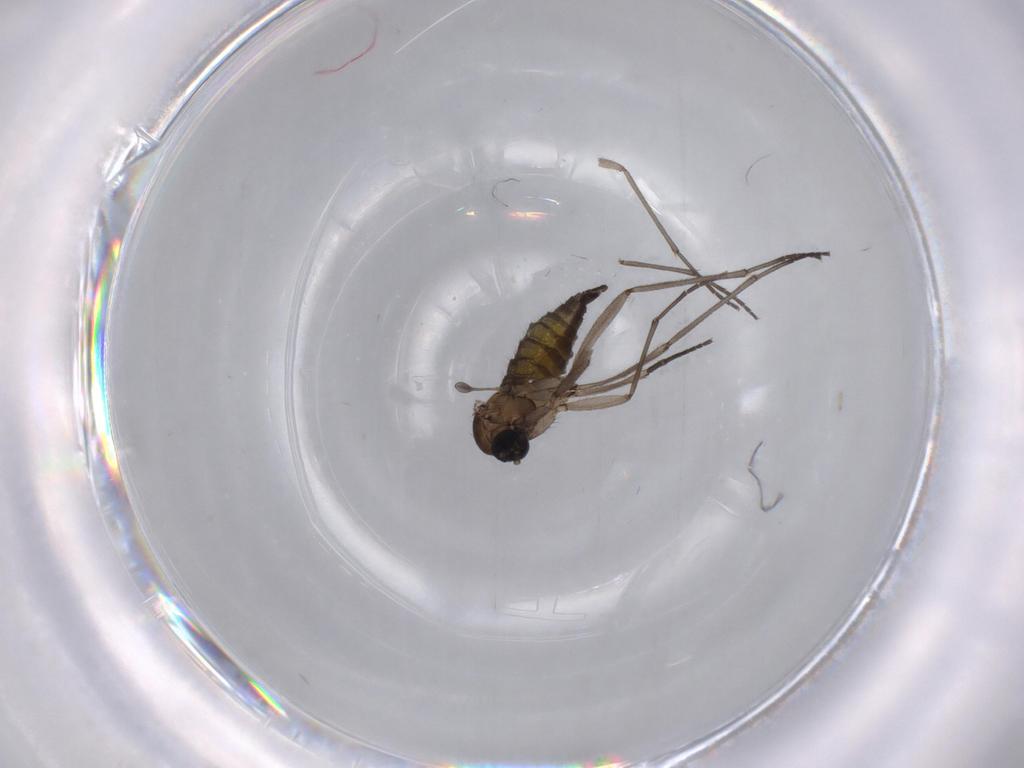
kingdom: Animalia
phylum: Arthropoda
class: Insecta
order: Diptera
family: Sciaridae
